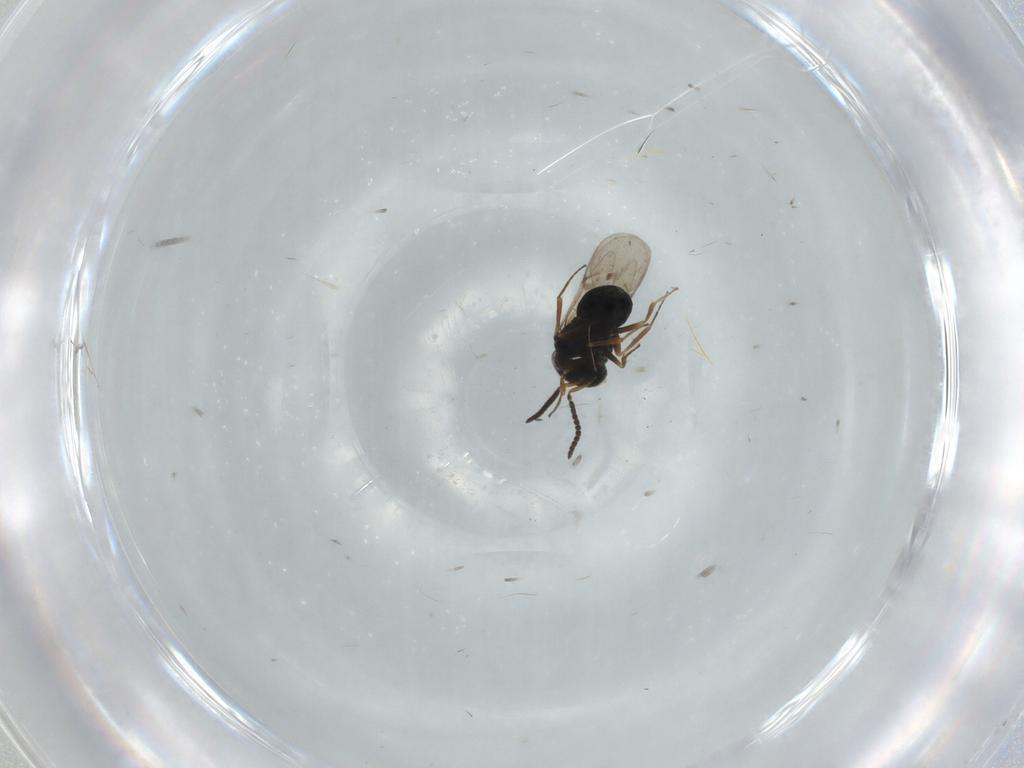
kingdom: Animalia
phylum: Arthropoda
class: Insecta
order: Hymenoptera
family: Scelionidae
